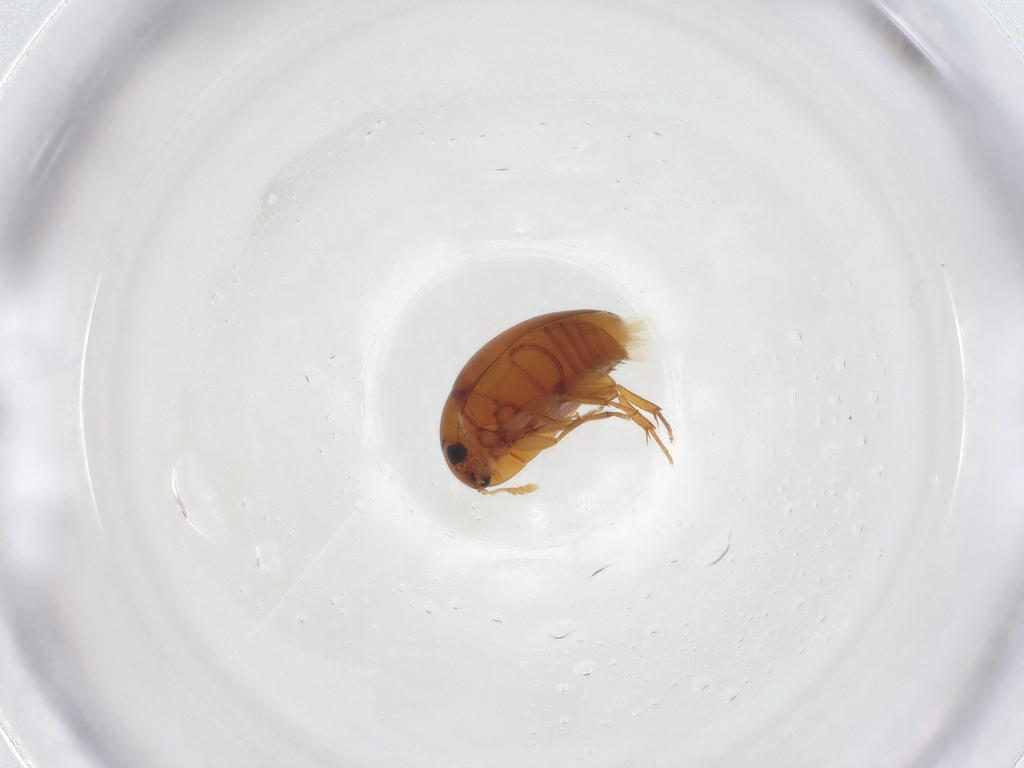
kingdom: Animalia
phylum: Arthropoda
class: Insecta
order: Coleoptera
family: Phalacridae
